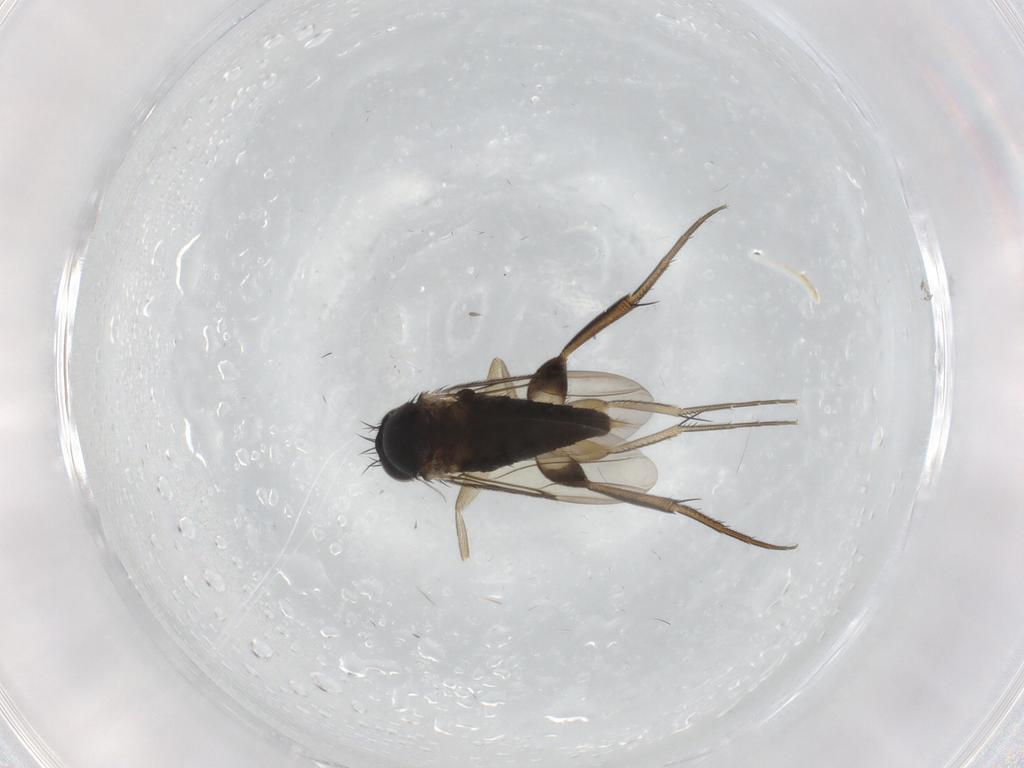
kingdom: Animalia
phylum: Arthropoda
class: Insecta
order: Diptera
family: Phoridae
